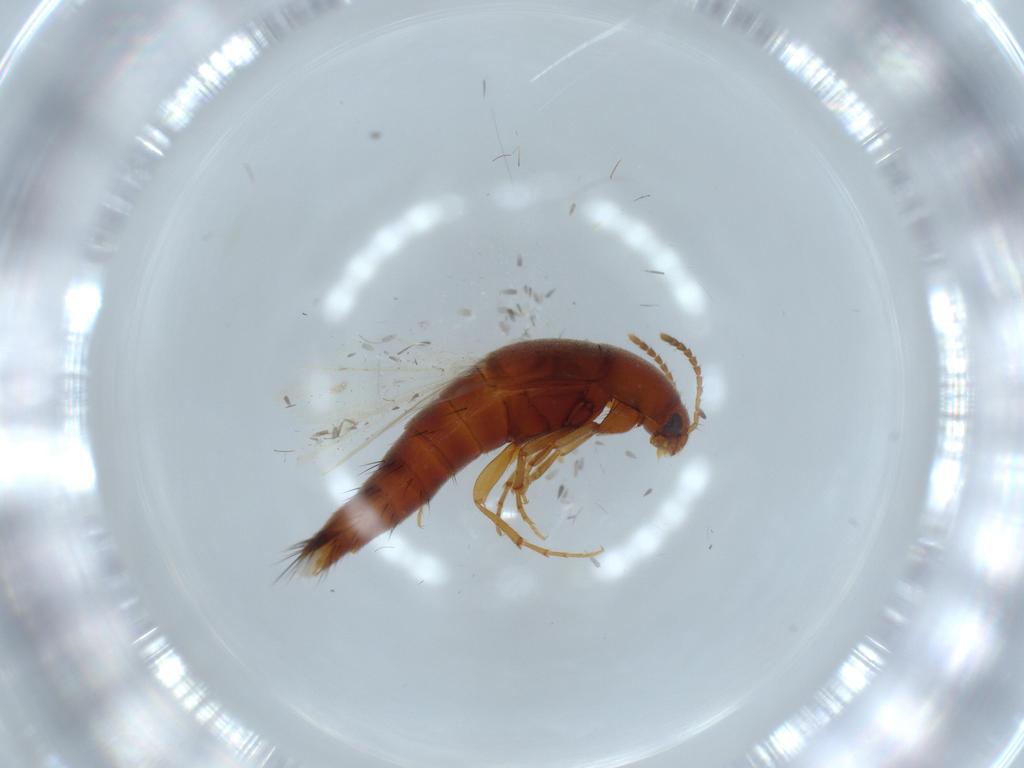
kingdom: Animalia
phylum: Arthropoda
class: Insecta
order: Coleoptera
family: Staphylinidae
